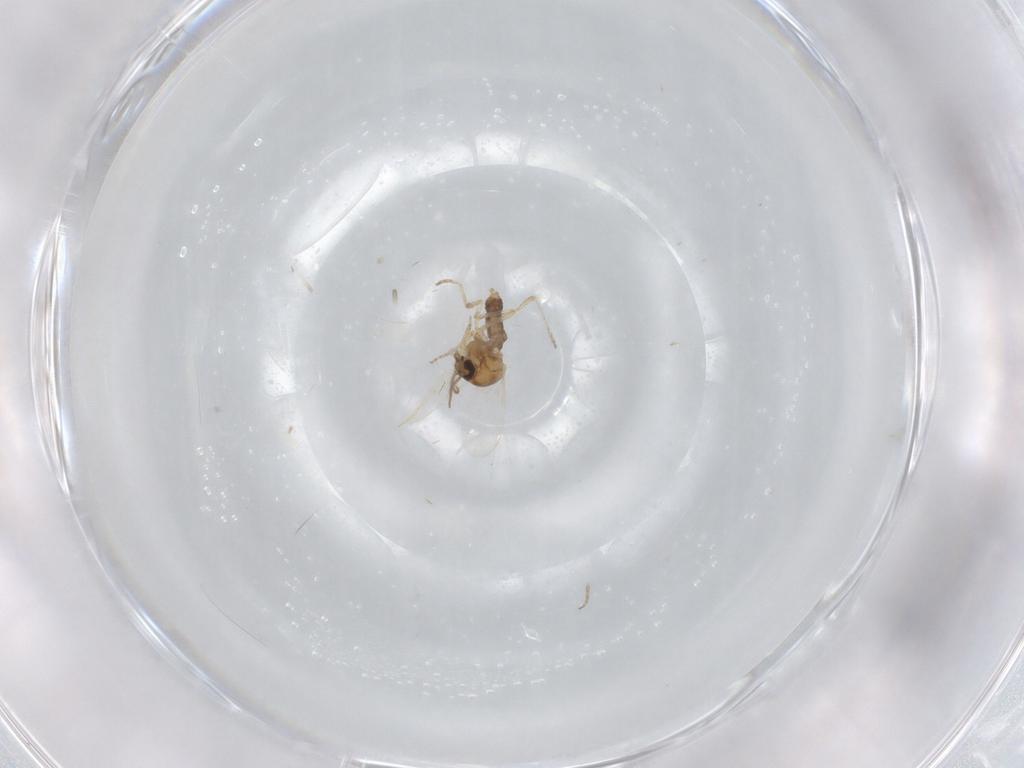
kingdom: Animalia
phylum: Arthropoda
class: Insecta
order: Diptera
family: Ceratopogonidae
